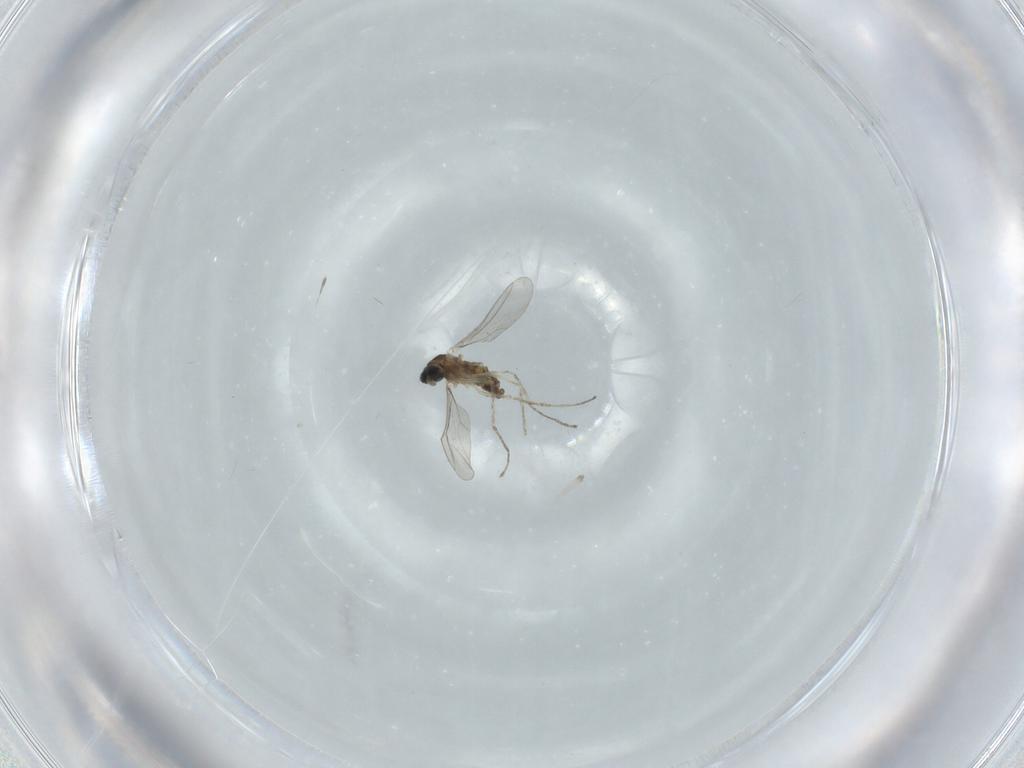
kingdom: Animalia
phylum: Arthropoda
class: Insecta
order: Diptera
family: Cecidomyiidae
